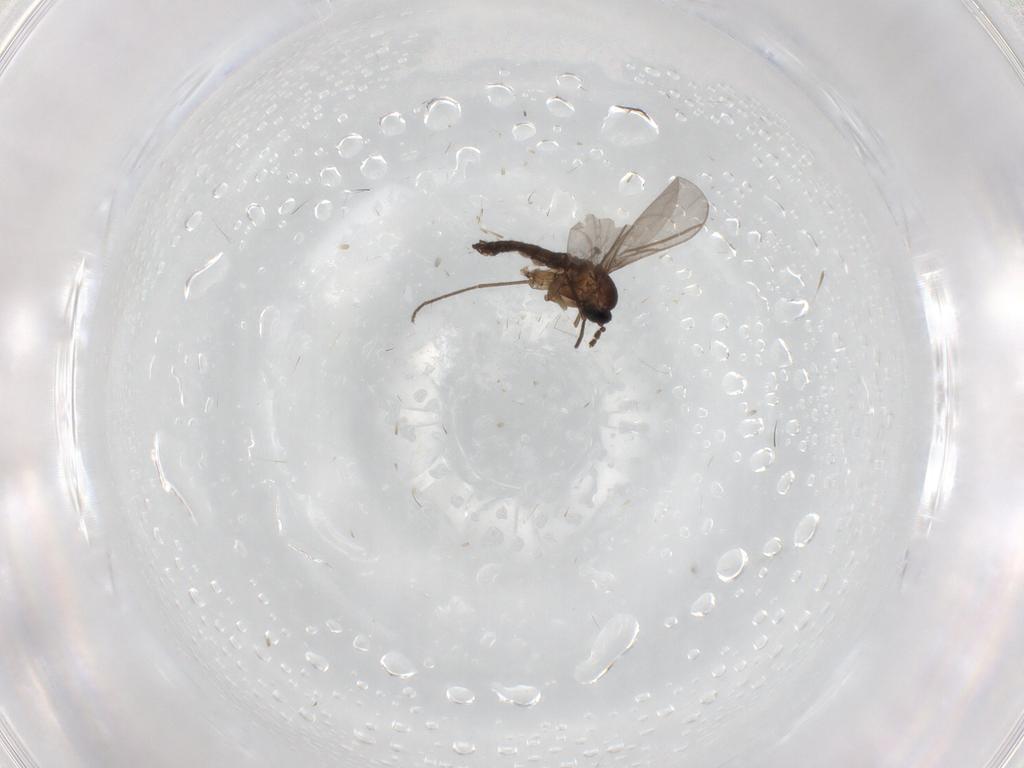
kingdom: Animalia
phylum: Arthropoda
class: Insecta
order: Diptera
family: Chironomidae
